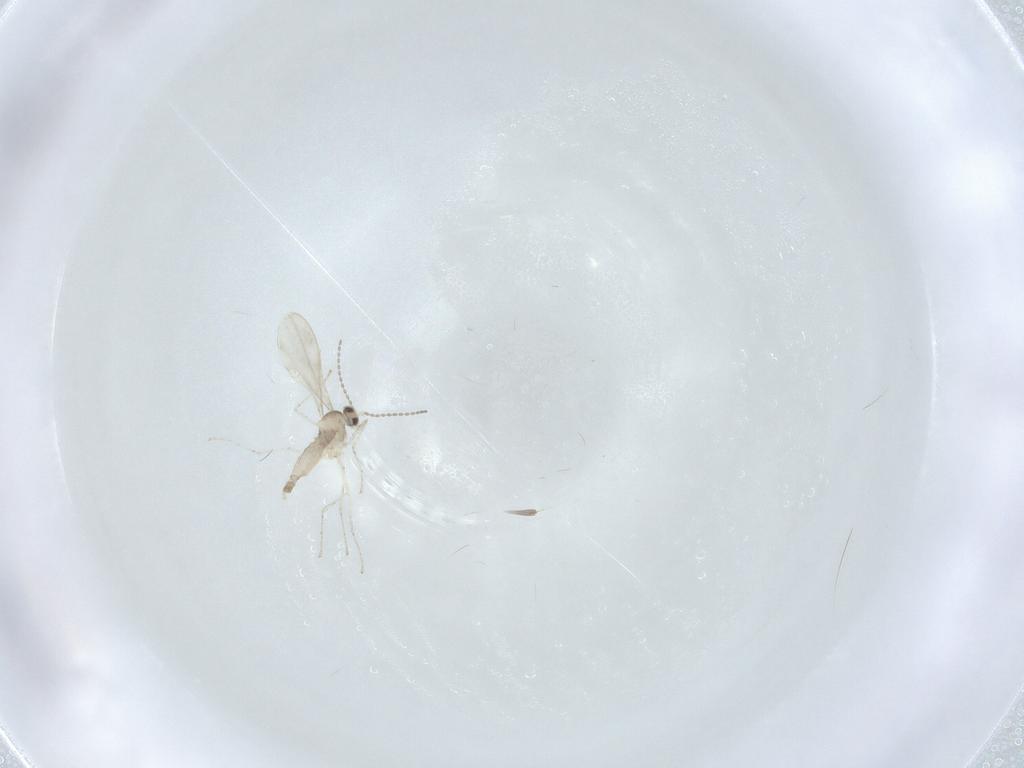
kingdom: Animalia
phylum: Arthropoda
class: Insecta
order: Diptera
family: Cecidomyiidae
